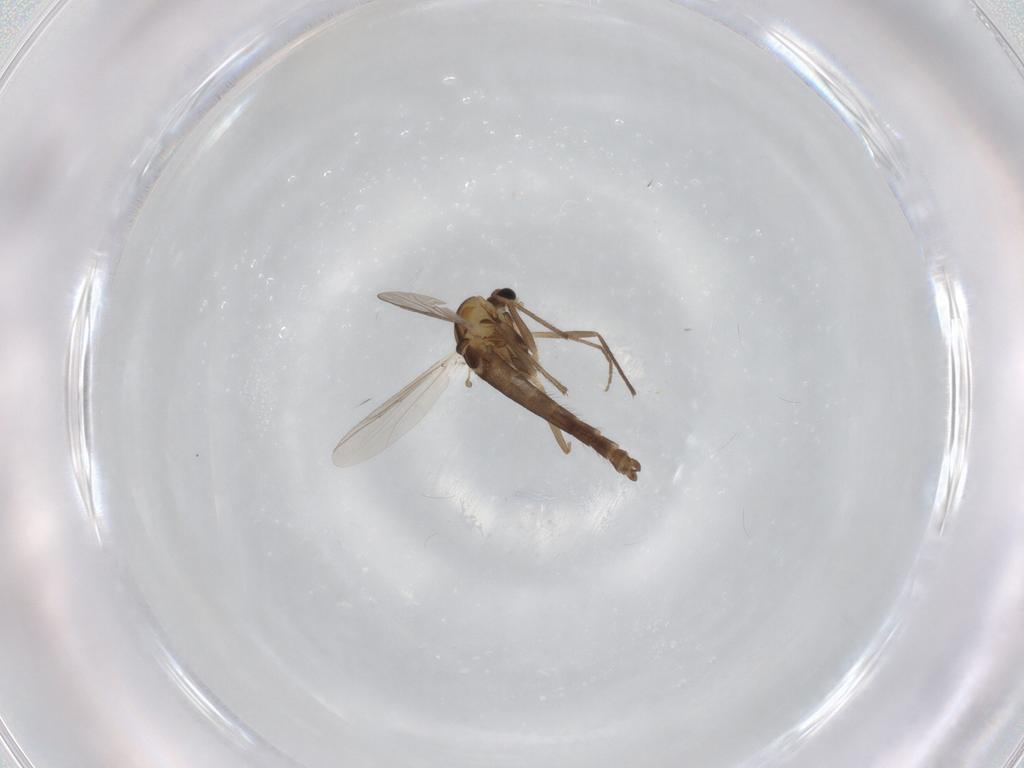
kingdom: Animalia
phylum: Arthropoda
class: Insecta
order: Diptera
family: Chironomidae
